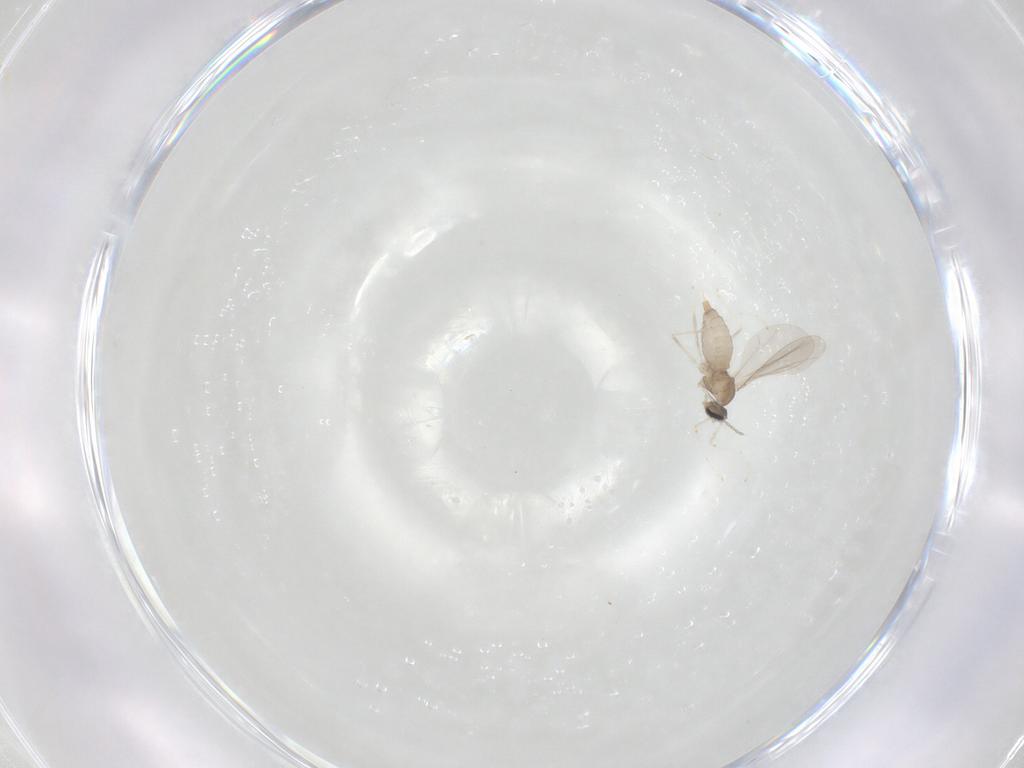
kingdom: Animalia
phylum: Arthropoda
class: Insecta
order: Diptera
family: Cecidomyiidae
